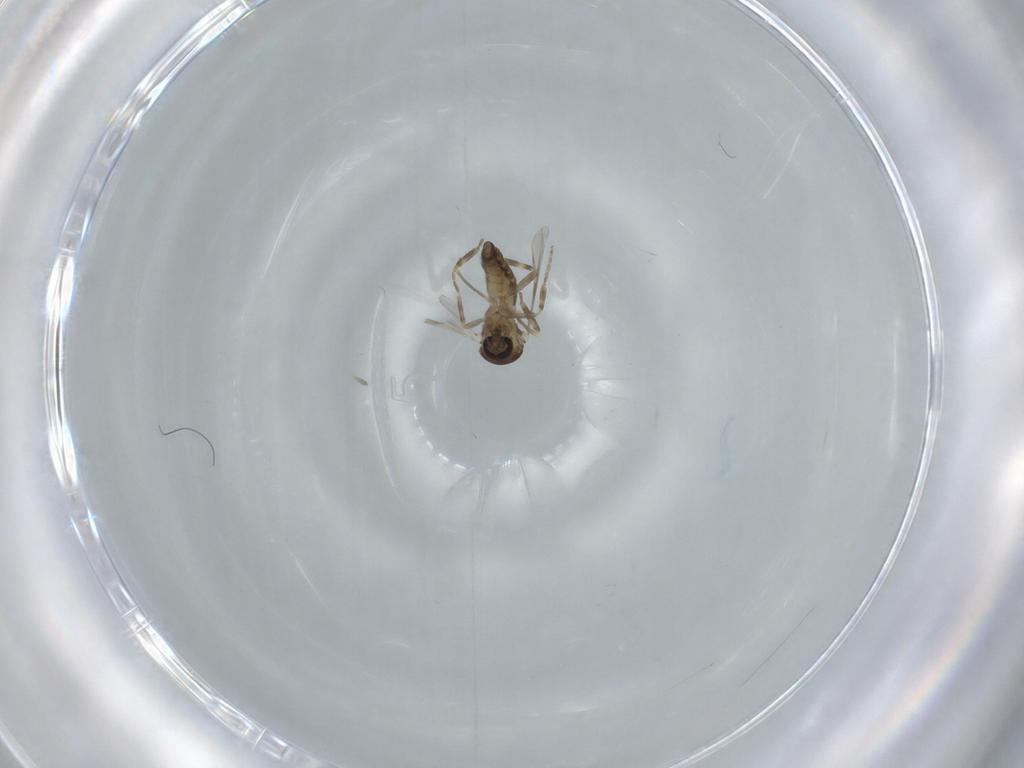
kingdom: Animalia
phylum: Arthropoda
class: Insecta
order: Diptera
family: Ceratopogonidae
